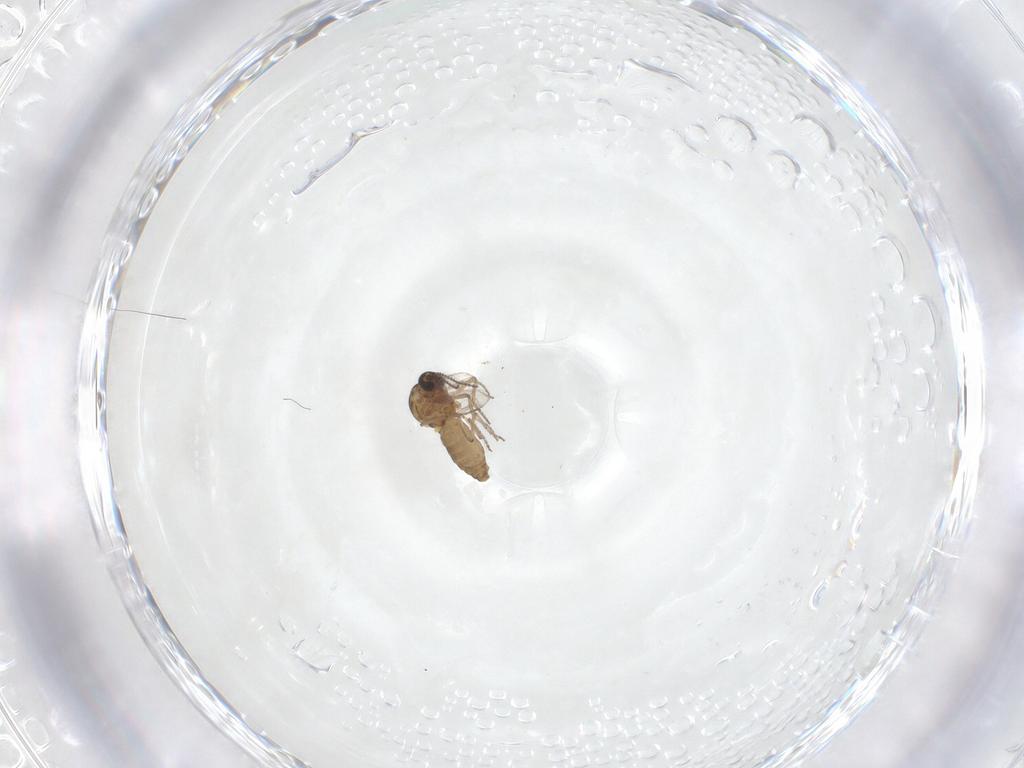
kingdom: Animalia
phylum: Arthropoda
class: Insecta
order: Diptera
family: Ceratopogonidae
